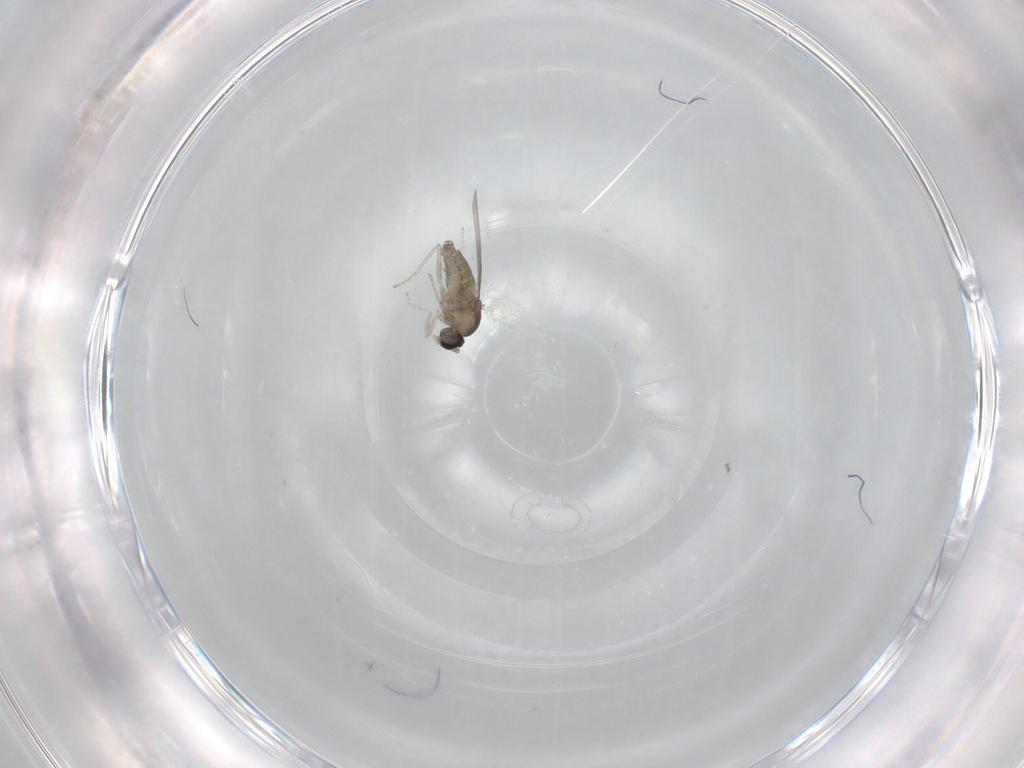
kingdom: Animalia
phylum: Arthropoda
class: Insecta
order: Diptera
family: Cecidomyiidae
